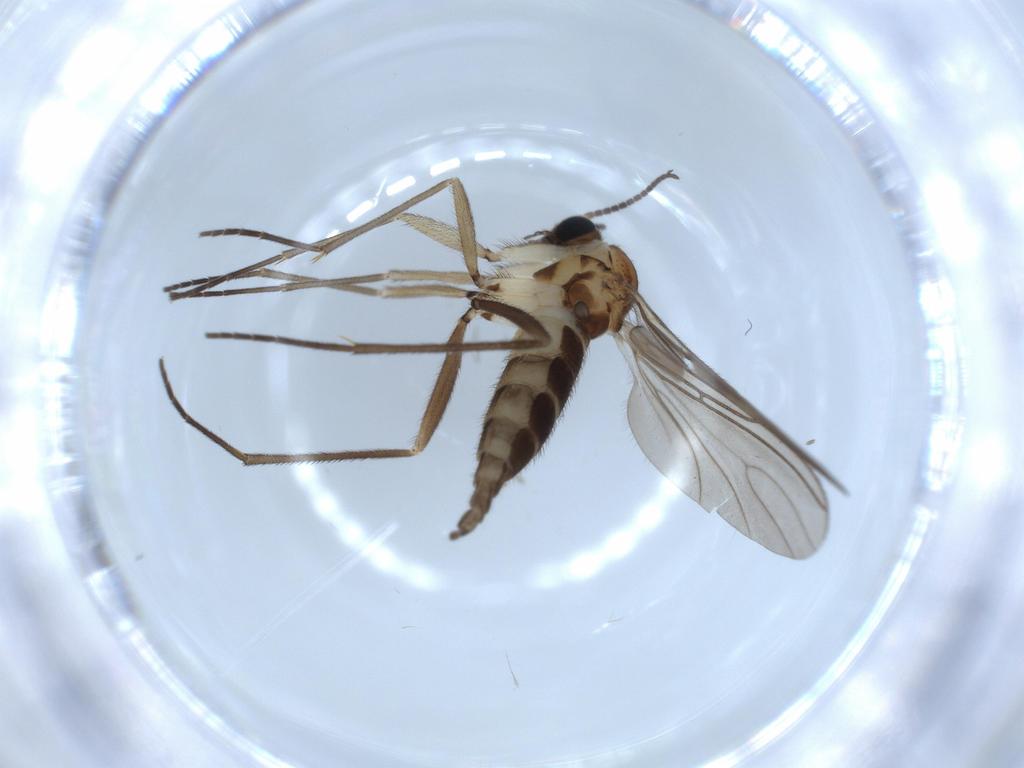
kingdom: Animalia
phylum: Arthropoda
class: Insecta
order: Diptera
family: Sciaridae
